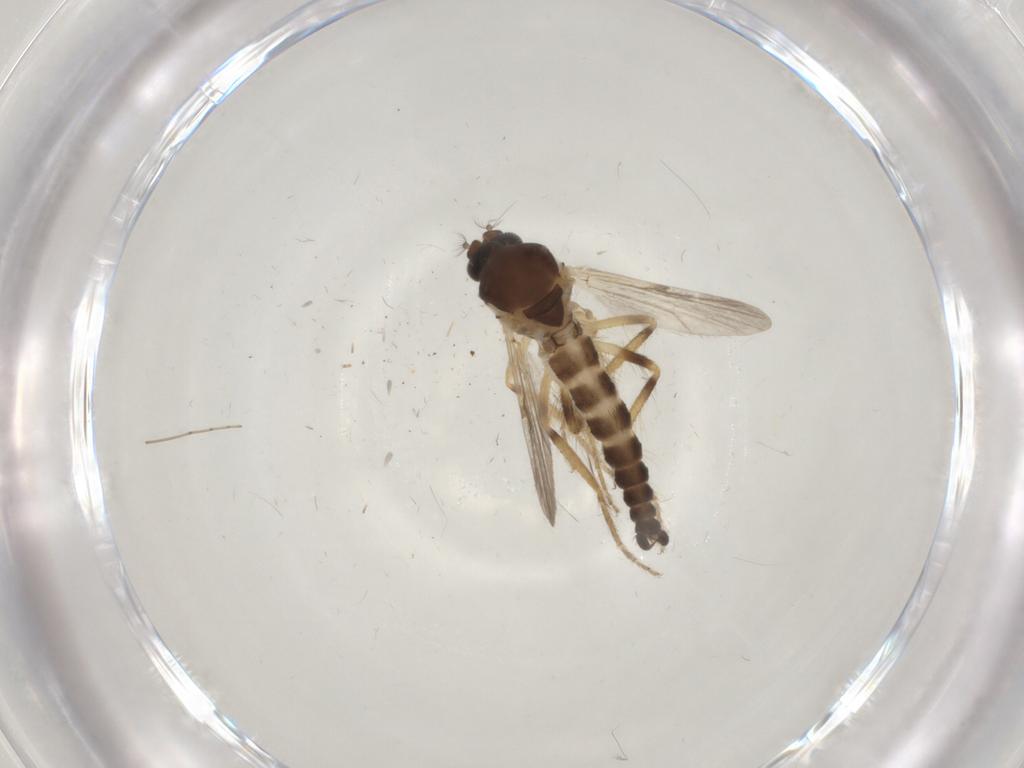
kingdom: Animalia
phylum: Arthropoda
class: Insecta
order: Diptera
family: Ceratopogonidae
